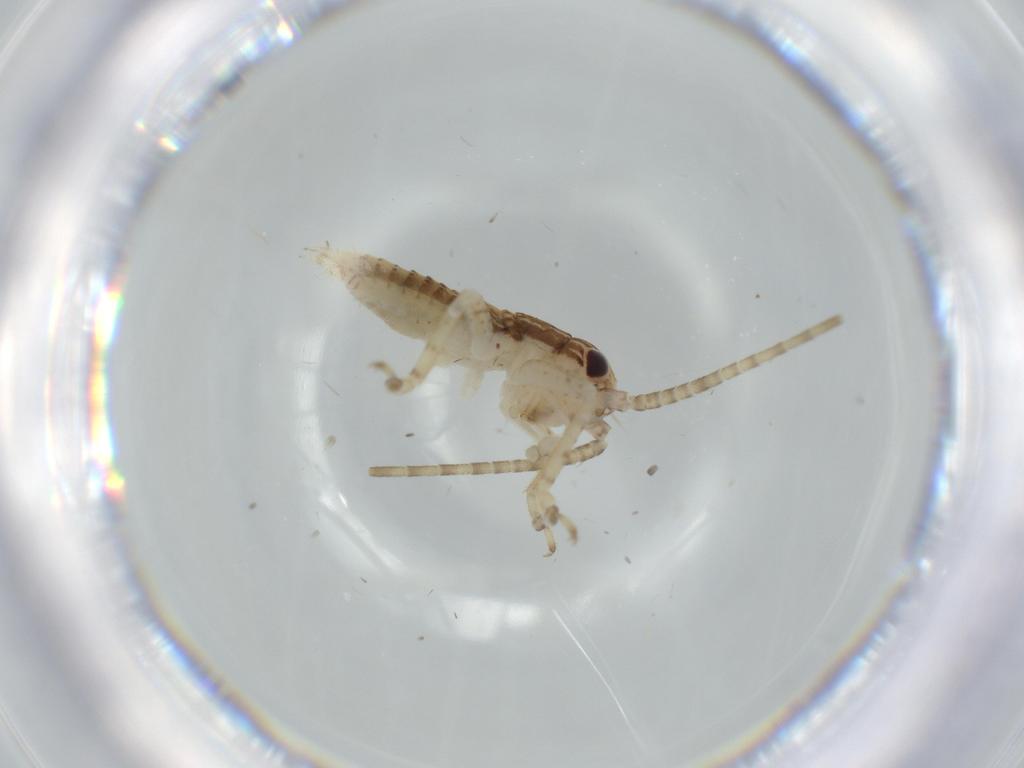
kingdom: Animalia
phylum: Arthropoda
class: Insecta
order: Orthoptera
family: Gryllidae
